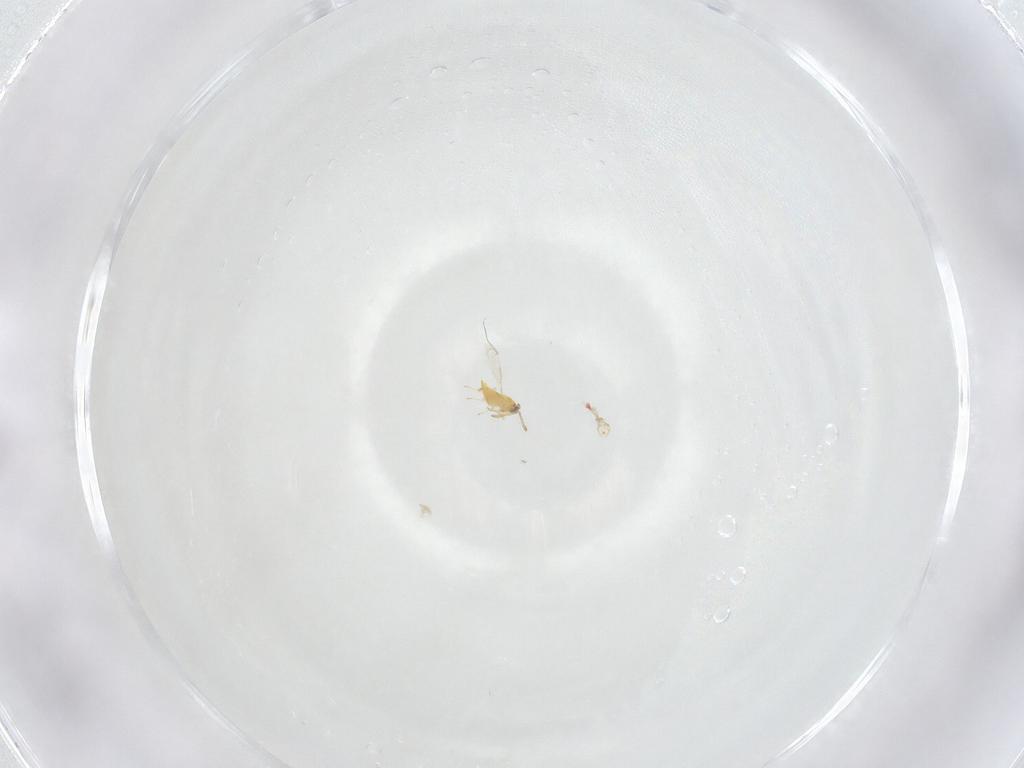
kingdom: Animalia
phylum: Arthropoda
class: Insecta
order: Hymenoptera
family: Aphelinidae
